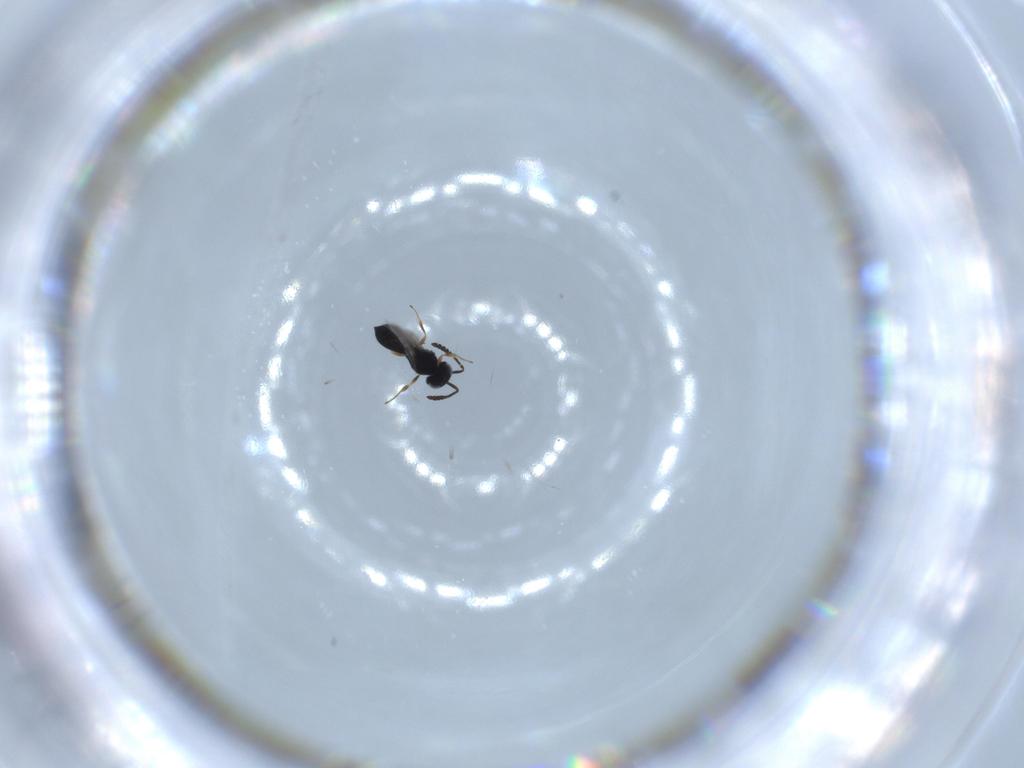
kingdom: Animalia
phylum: Arthropoda
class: Insecta
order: Hymenoptera
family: Scelionidae
